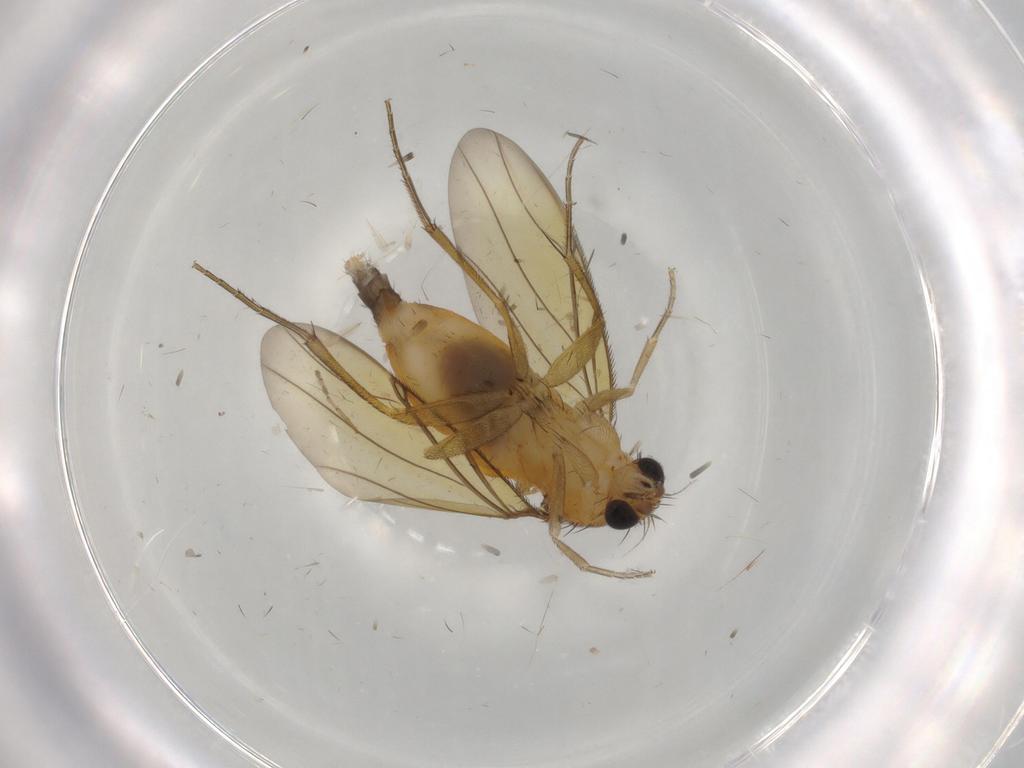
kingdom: Animalia
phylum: Arthropoda
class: Insecta
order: Diptera
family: Ceratopogonidae
